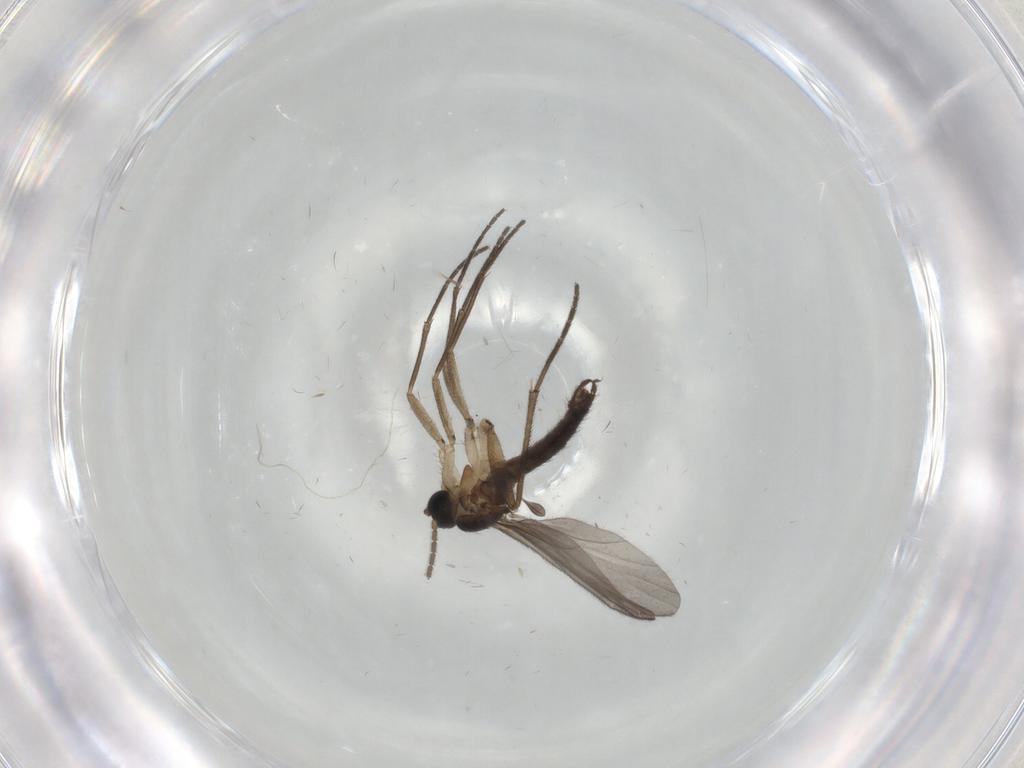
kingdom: Animalia
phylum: Arthropoda
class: Insecta
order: Diptera
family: Sciaridae
